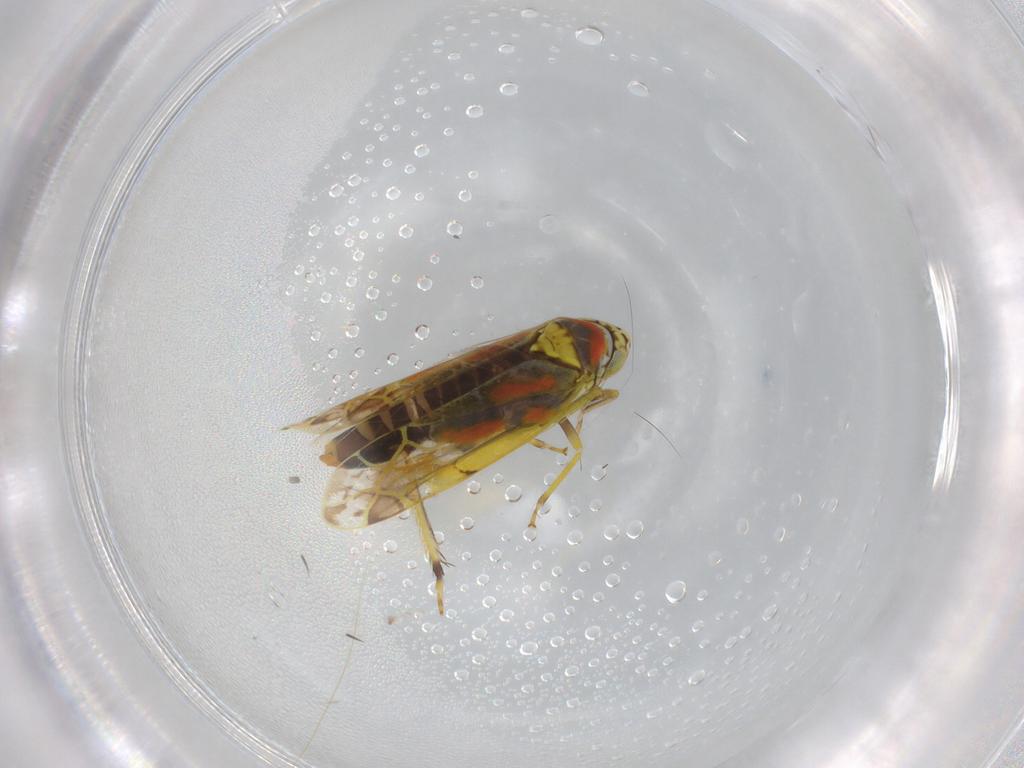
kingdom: Animalia
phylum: Arthropoda
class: Insecta
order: Hemiptera
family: Cicadellidae
